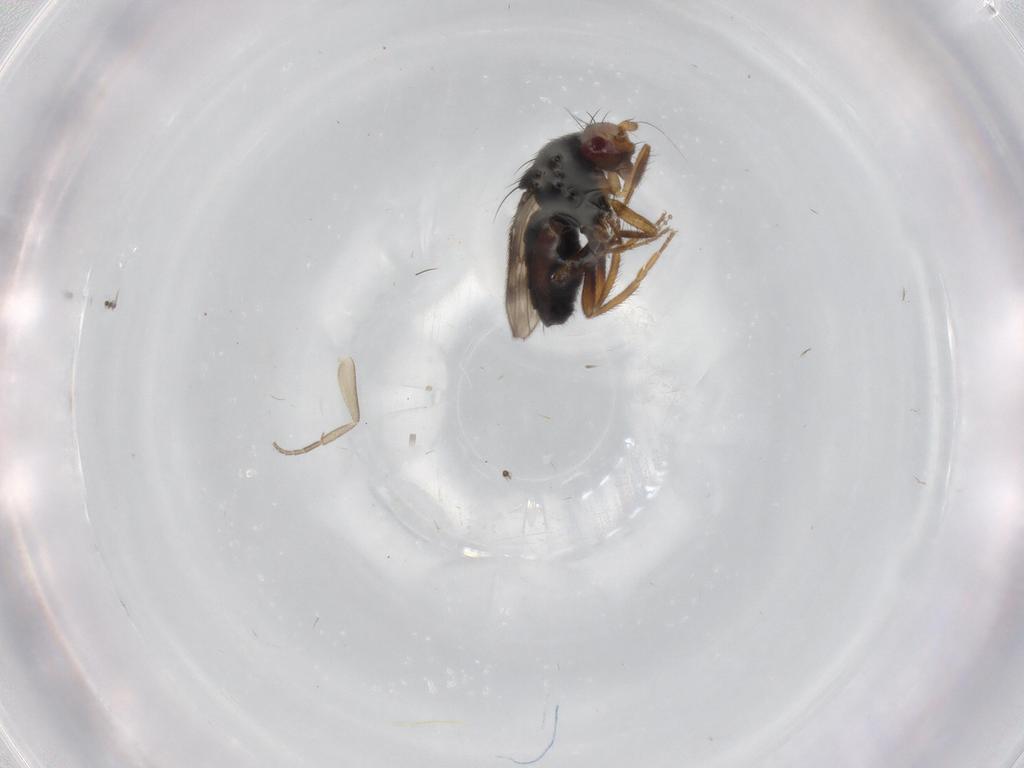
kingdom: Animalia
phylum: Arthropoda
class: Insecta
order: Diptera
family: Sphaeroceridae
